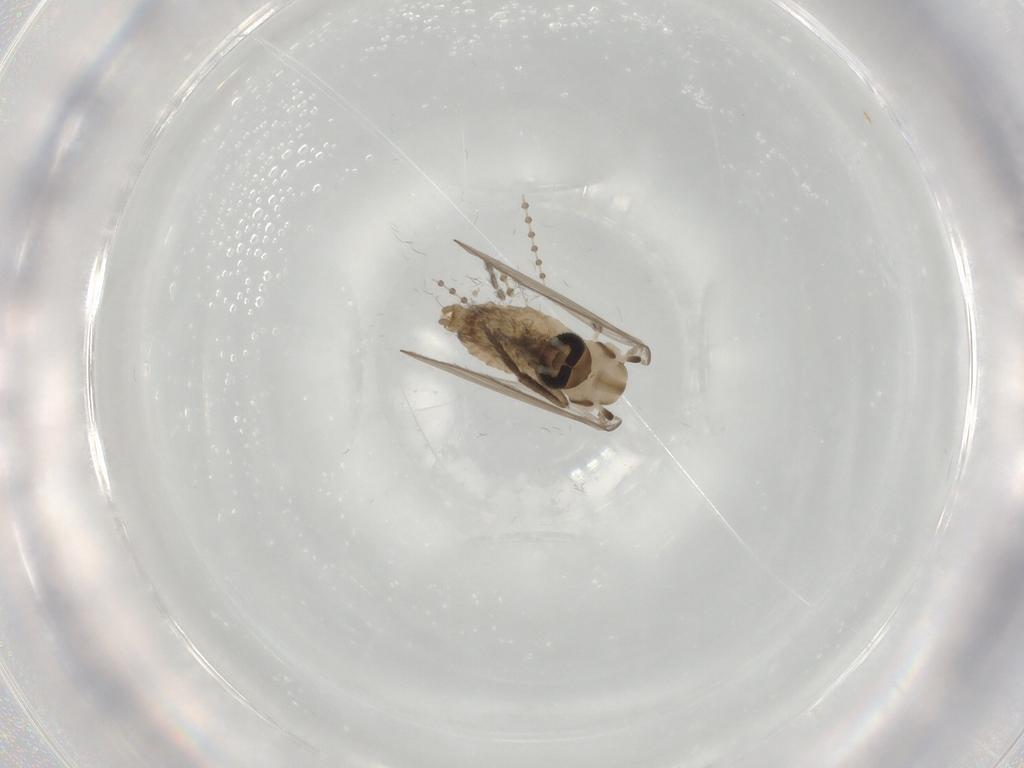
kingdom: Animalia
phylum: Arthropoda
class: Insecta
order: Diptera
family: Psychodidae
